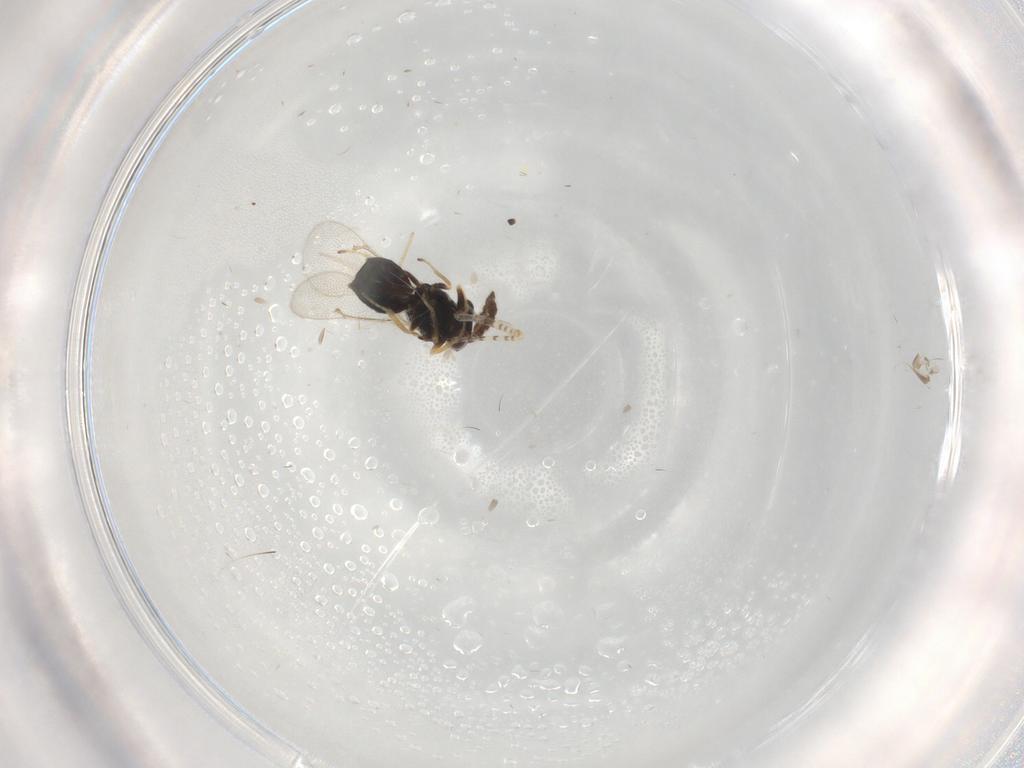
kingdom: Animalia
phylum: Arthropoda
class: Insecta
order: Hymenoptera
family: Eulophidae
